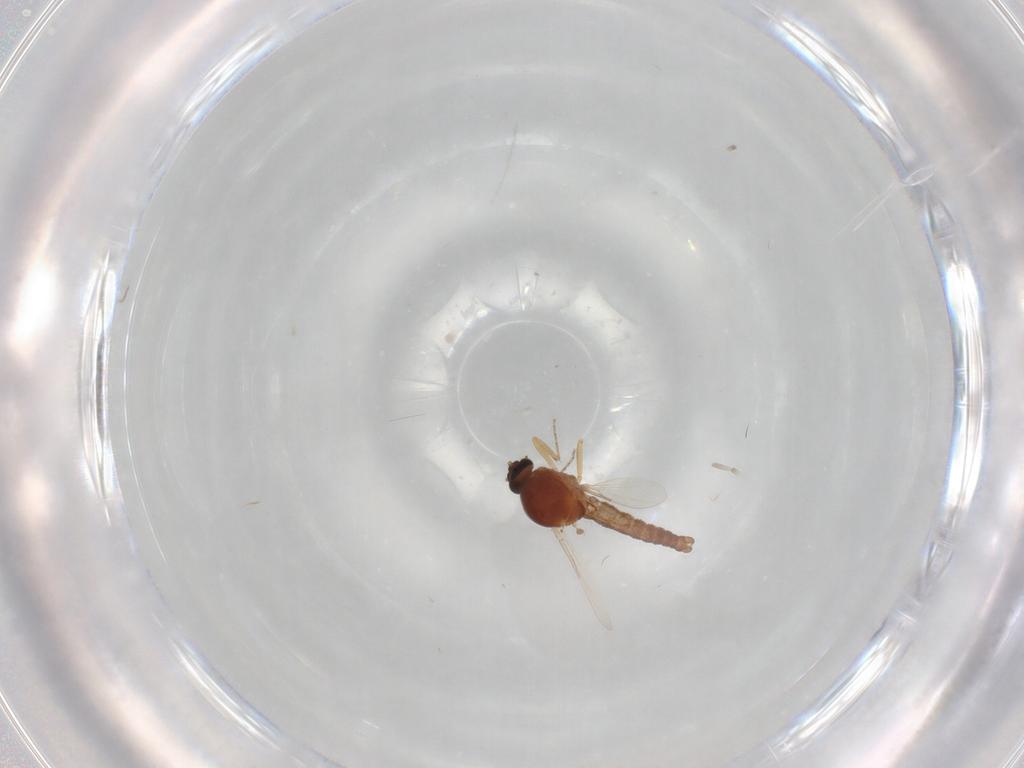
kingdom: Animalia
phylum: Arthropoda
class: Insecta
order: Diptera
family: Ceratopogonidae
